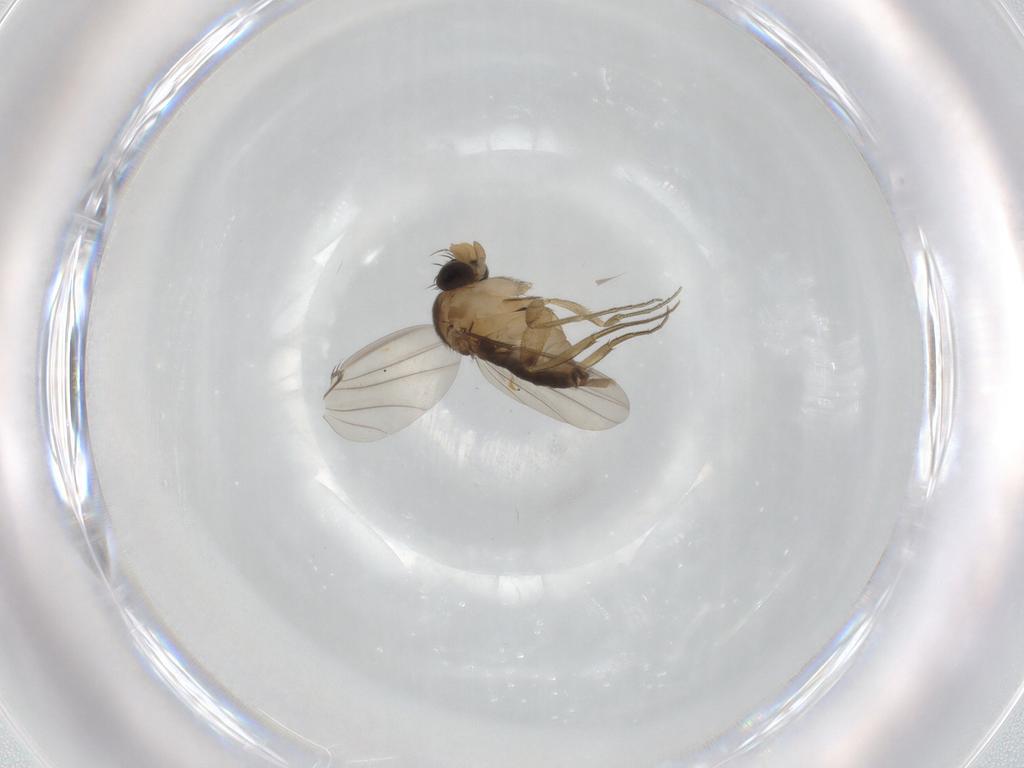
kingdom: Animalia
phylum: Arthropoda
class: Insecta
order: Diptera
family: Phoridae
